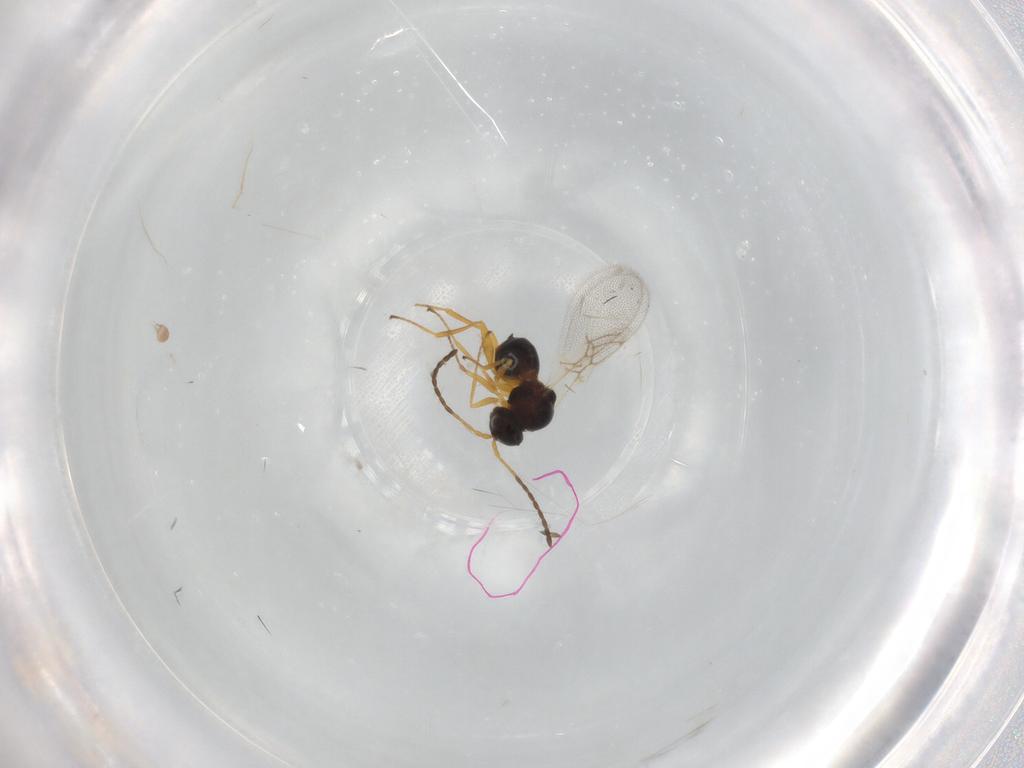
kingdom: Animalia
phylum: Arthropoda
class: Insecta
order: Hymenoptera
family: Figitidae
